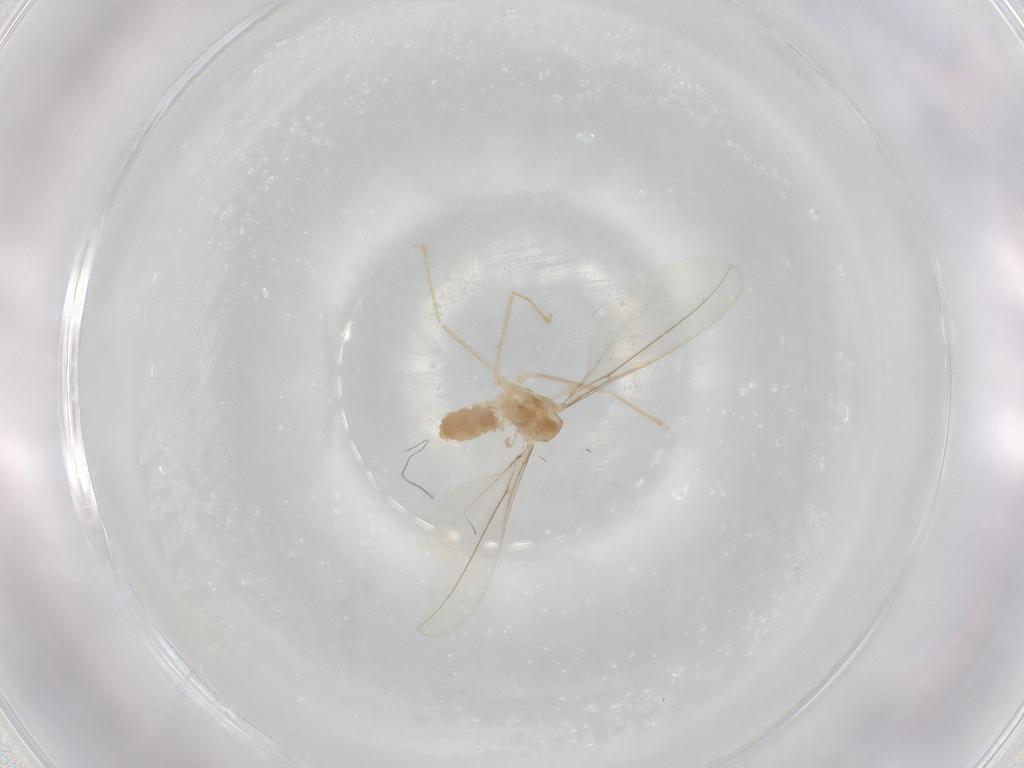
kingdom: Animalia
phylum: Arthropoda
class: Insecta
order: Diptera
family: Cecidomyiidae
